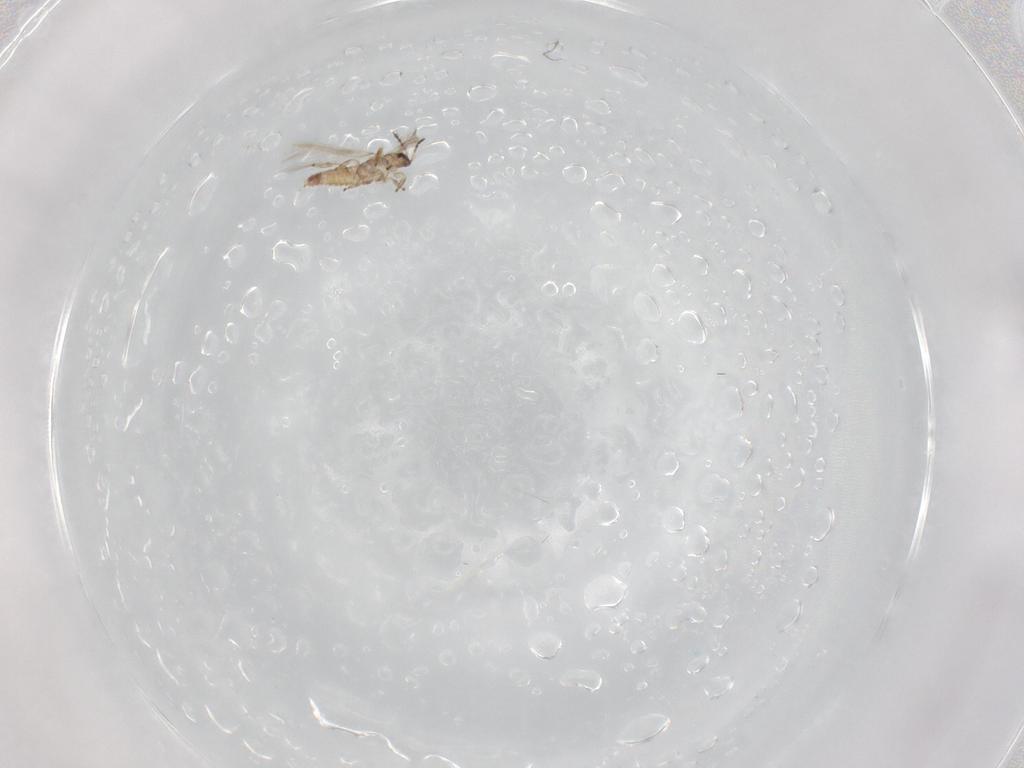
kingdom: Animalia
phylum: Arthropoda
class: Insecta
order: Thysanoptera
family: Thripidae
